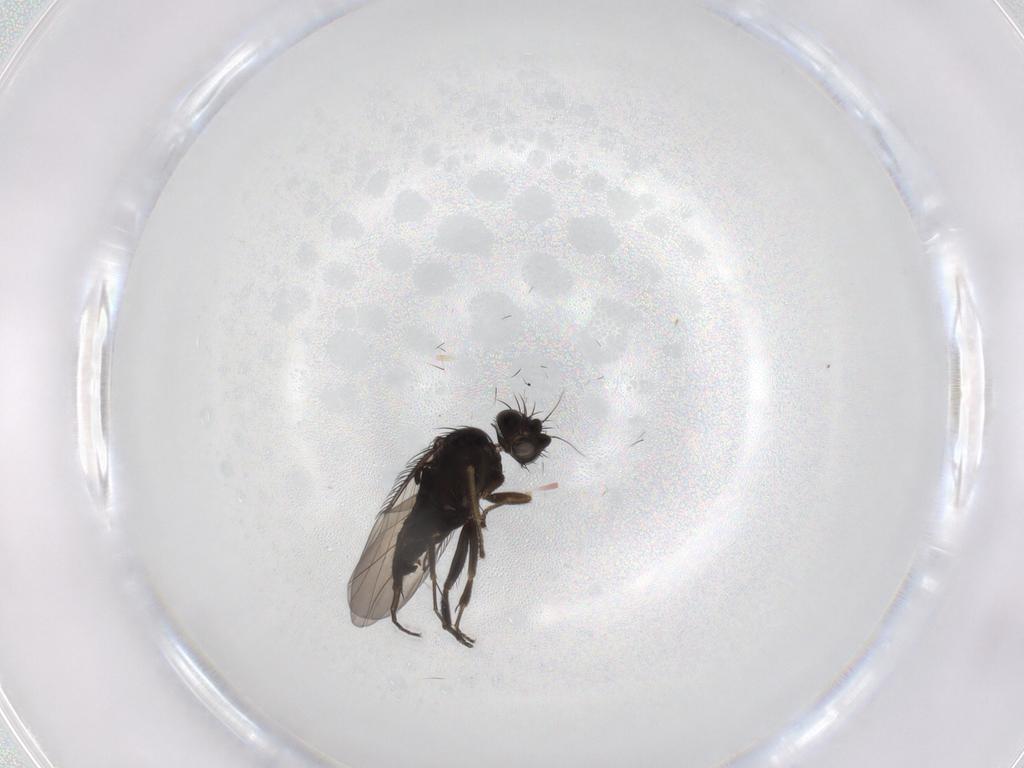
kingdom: Animalia
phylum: Arthropoda
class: Insecta
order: Diptera
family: Phoridae
